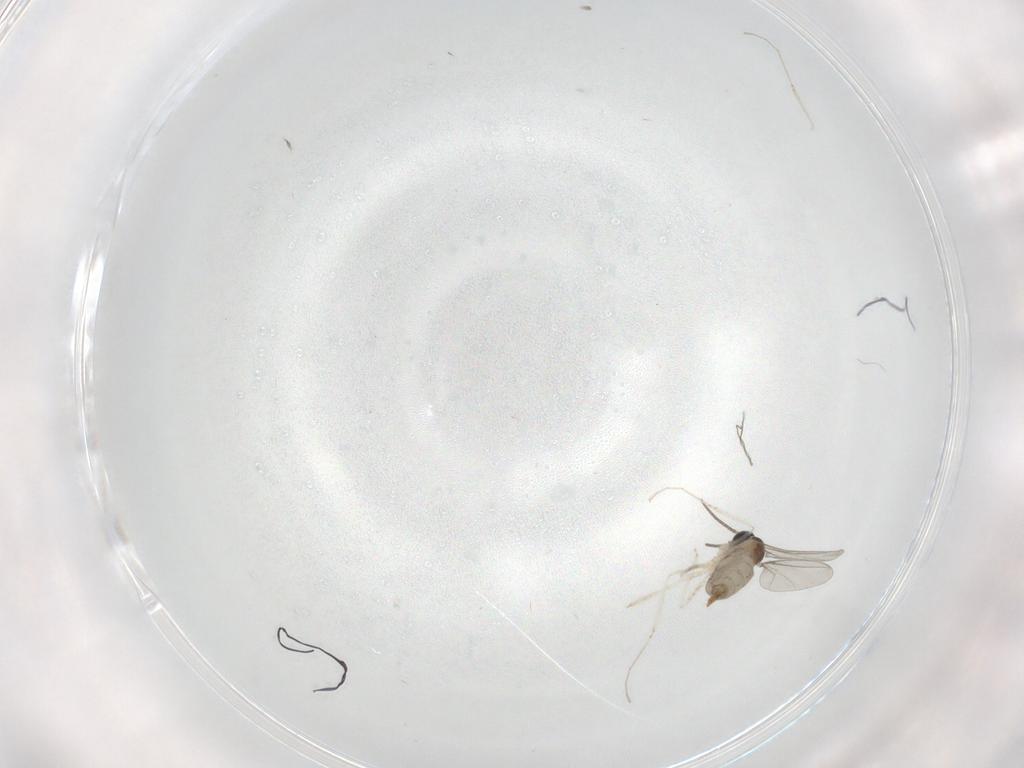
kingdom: Animalia
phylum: Arthropoda
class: Insecta
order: Diptera
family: Cecidomyiidae
